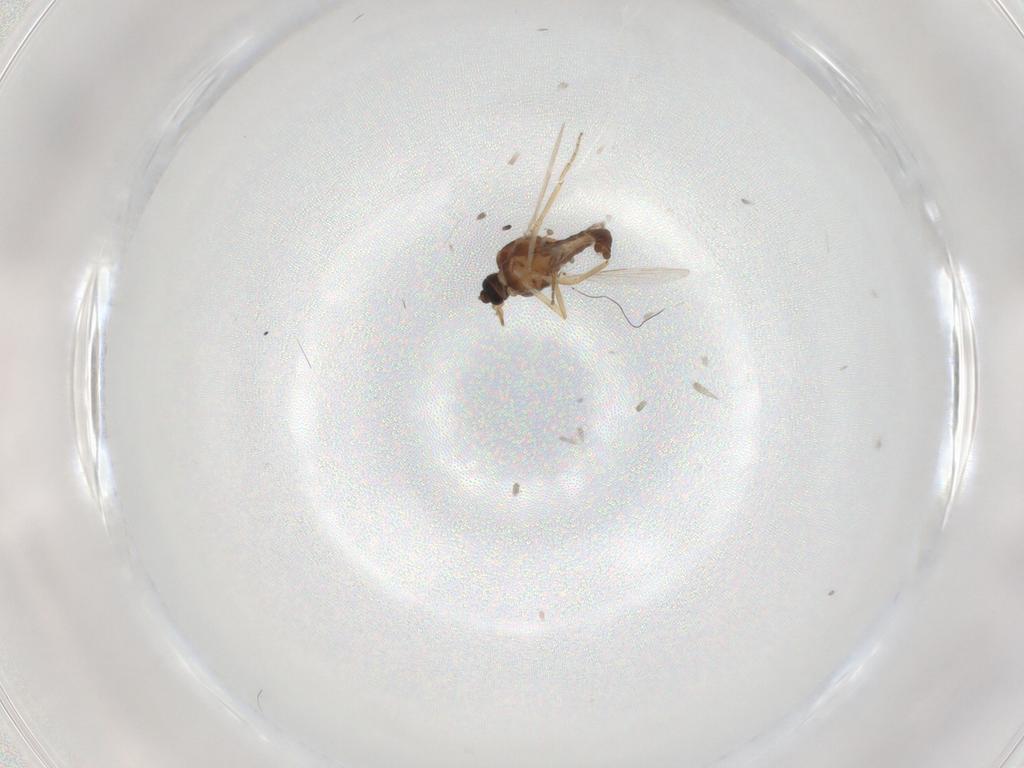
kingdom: Animalia
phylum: Arthropoda
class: Insecta
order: Diptera
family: Ceratopogonidae
